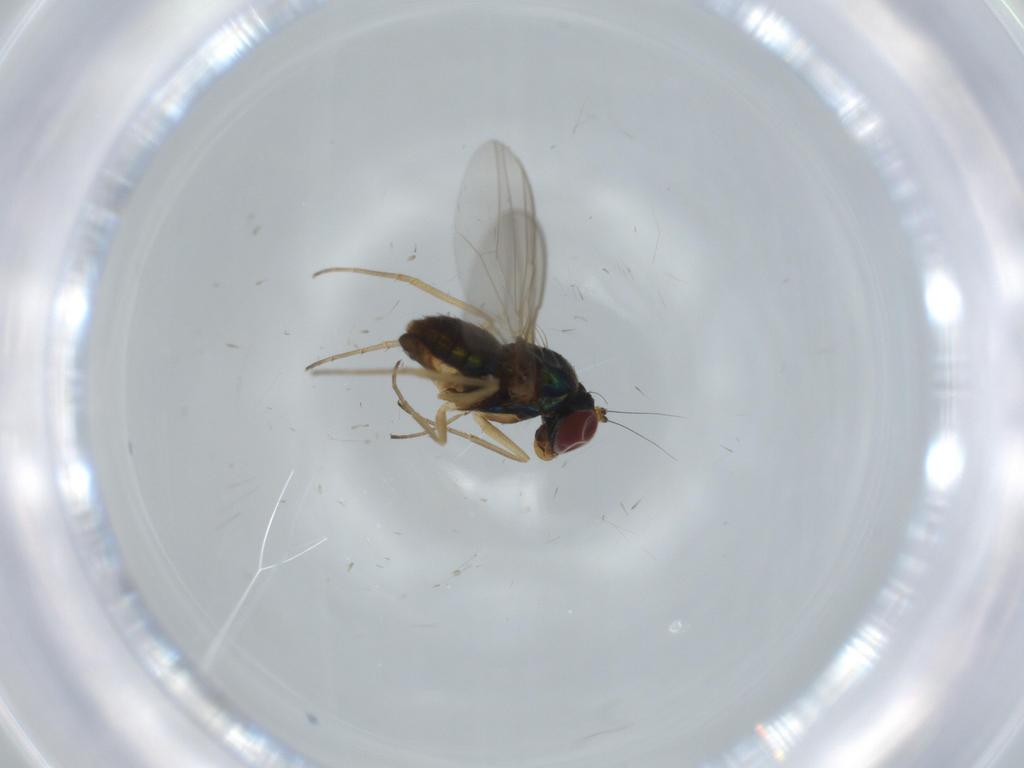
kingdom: Animalia
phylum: Arthropoda
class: Insecta
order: Diptera
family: Dolichopodidae
